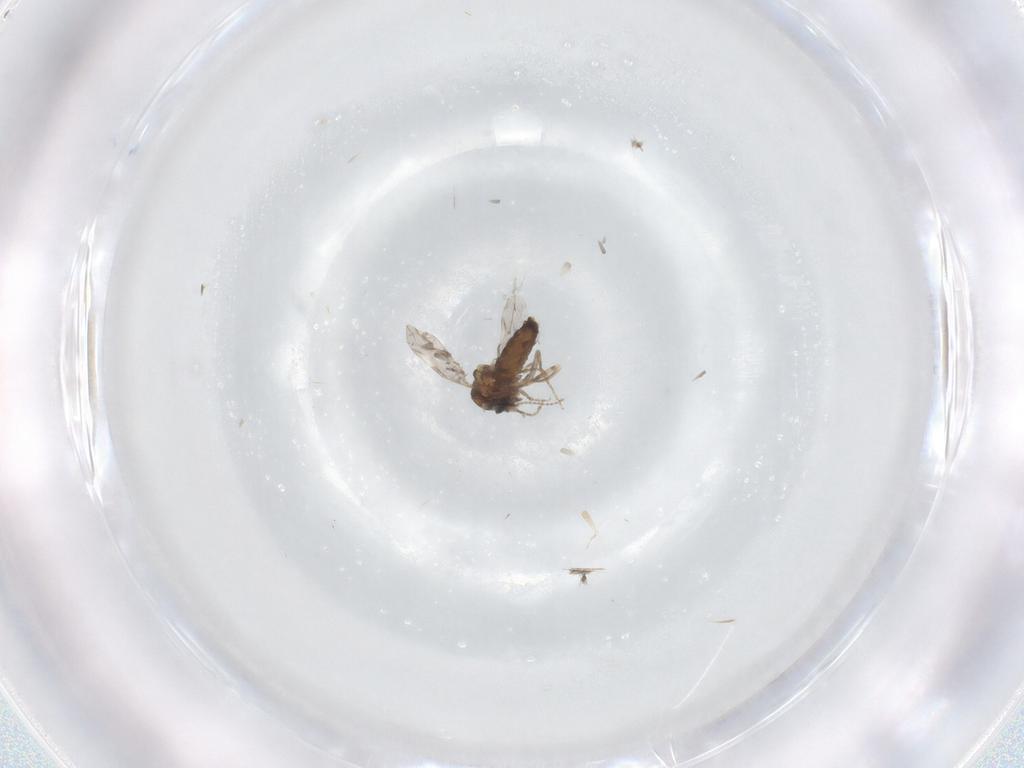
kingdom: Animalia
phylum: Arthropoda
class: Insecta
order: Diptera
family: Ceratopogonidae
